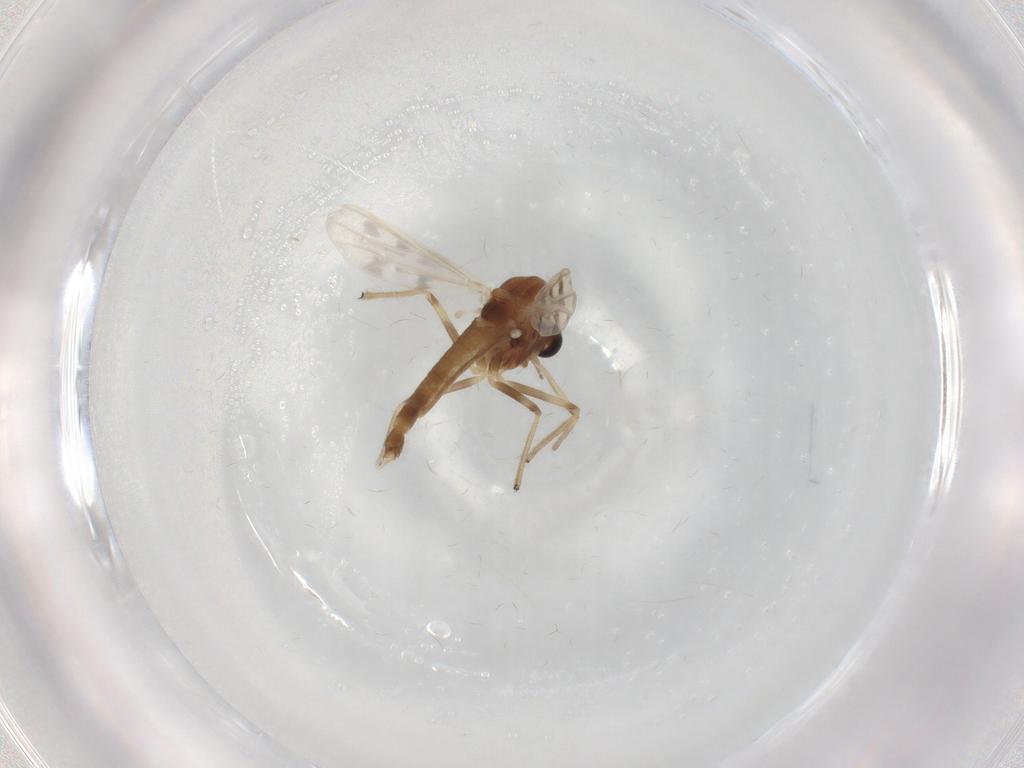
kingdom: Animalia
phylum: Arthropoda
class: Insecta
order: Diptera
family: Chironomidae
